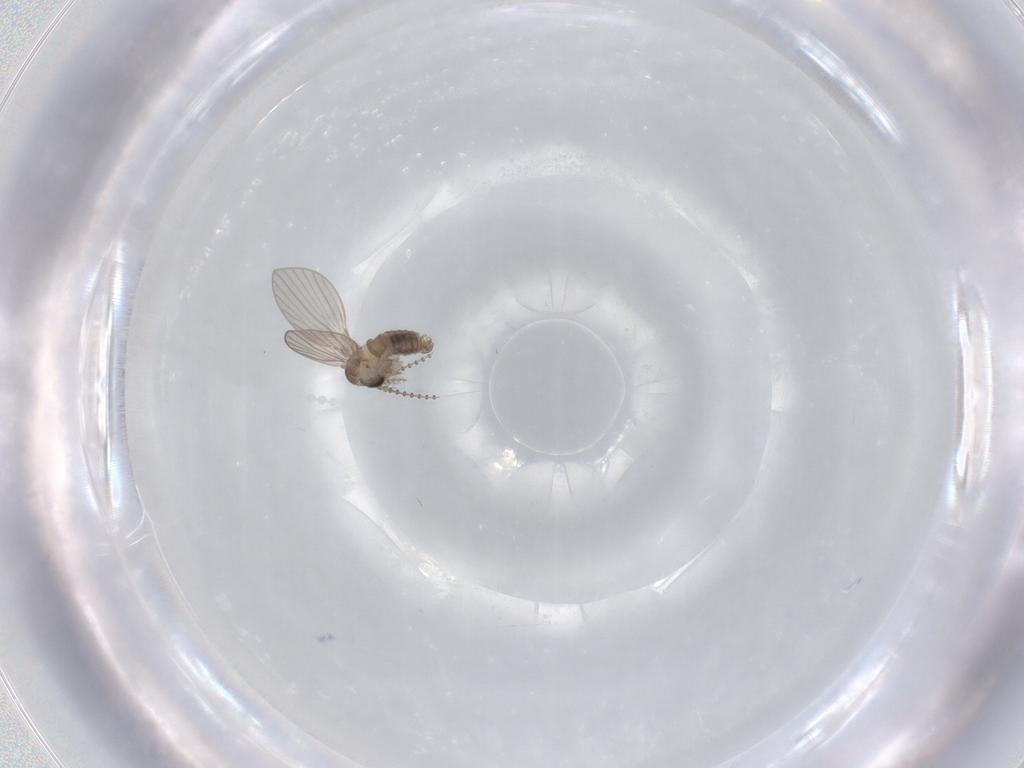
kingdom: Animalia
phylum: Arthropoda
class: Insecta
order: Diptera
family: Psychodidae
